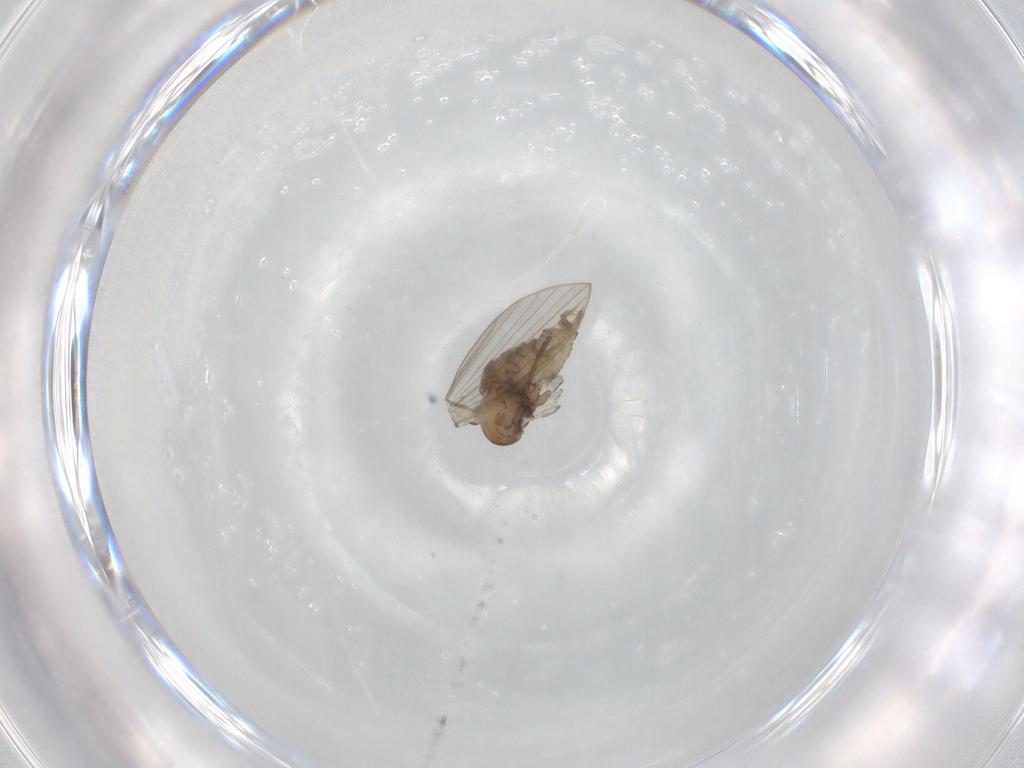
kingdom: Animalia
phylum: Arthropoda
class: Insecta
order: Diptera
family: Psychodidae
